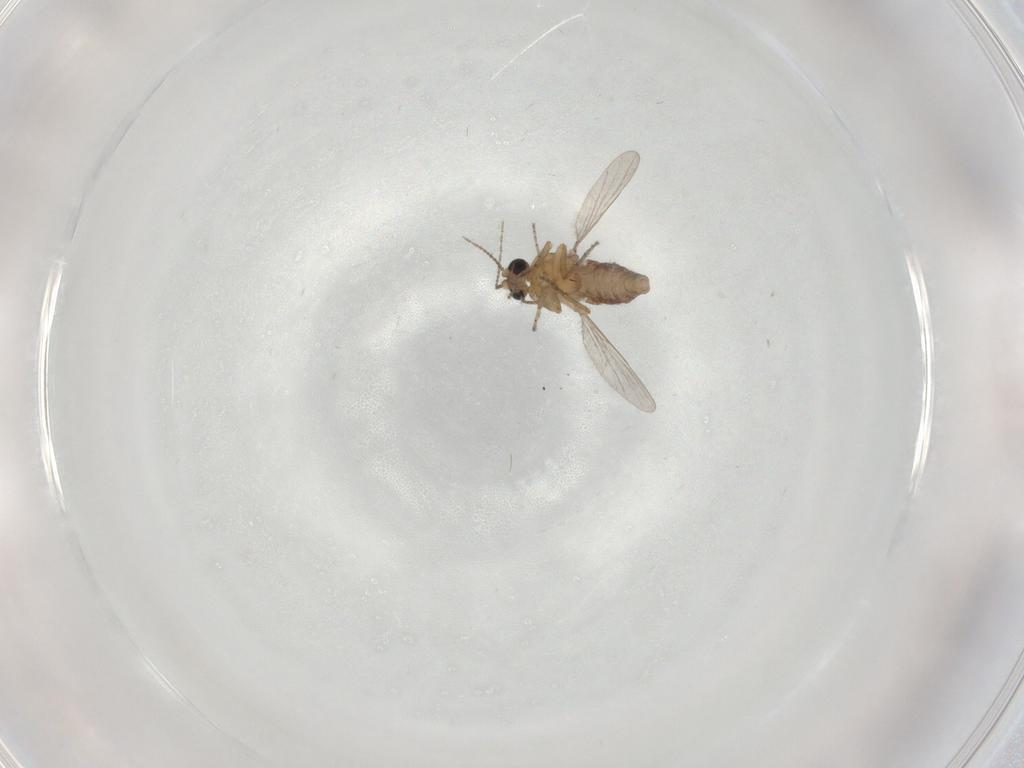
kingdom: Animalia
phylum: Arthropoda
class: Insecta
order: Diptera
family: Ceratopogonidae
